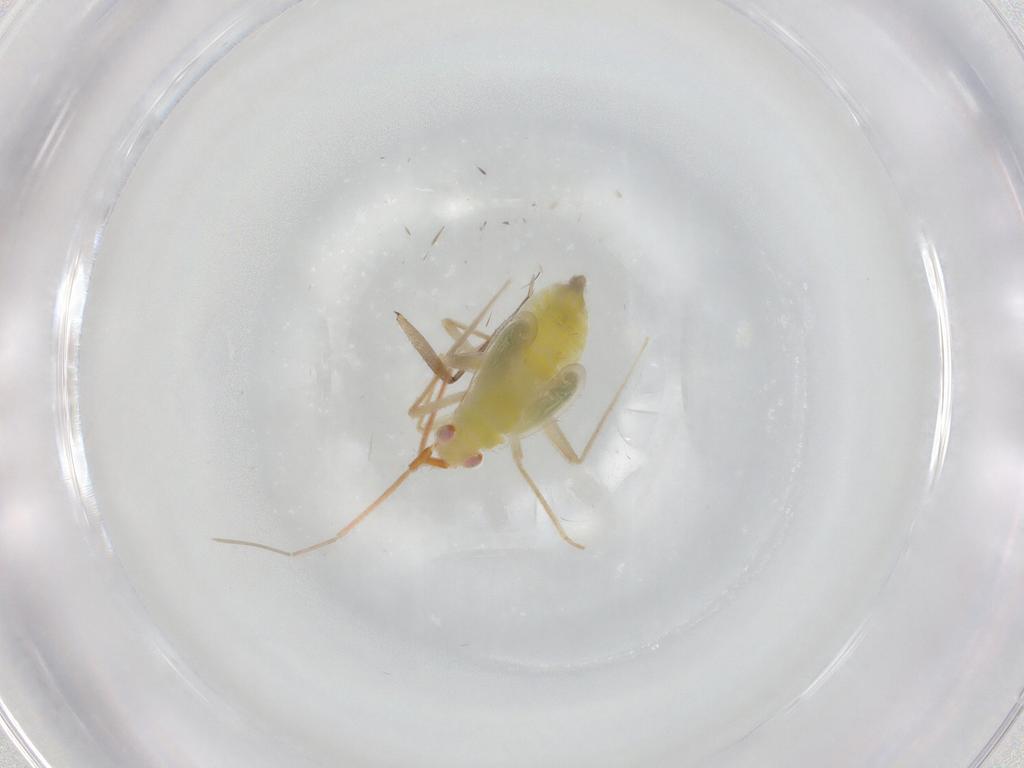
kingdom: Animalia
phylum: Arthropoda
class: Insecta
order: Hemiptera
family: Miridae
